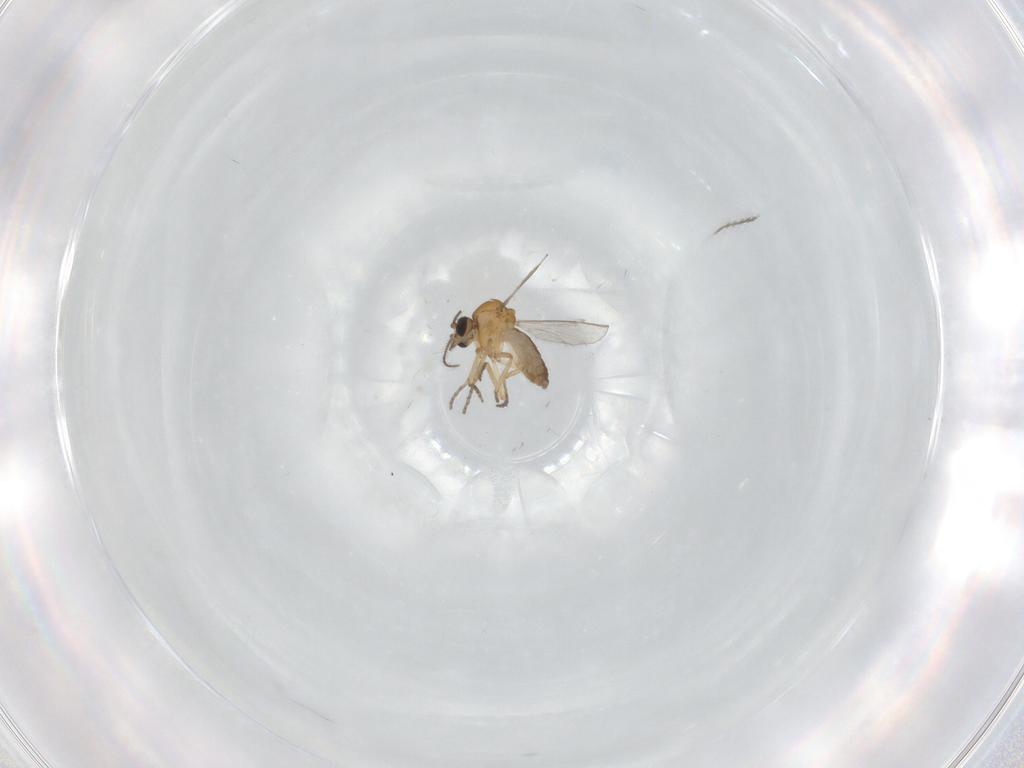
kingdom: Animalia
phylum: Arthropoda
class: Insecta
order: Diptera
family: Ceratopogonidae
